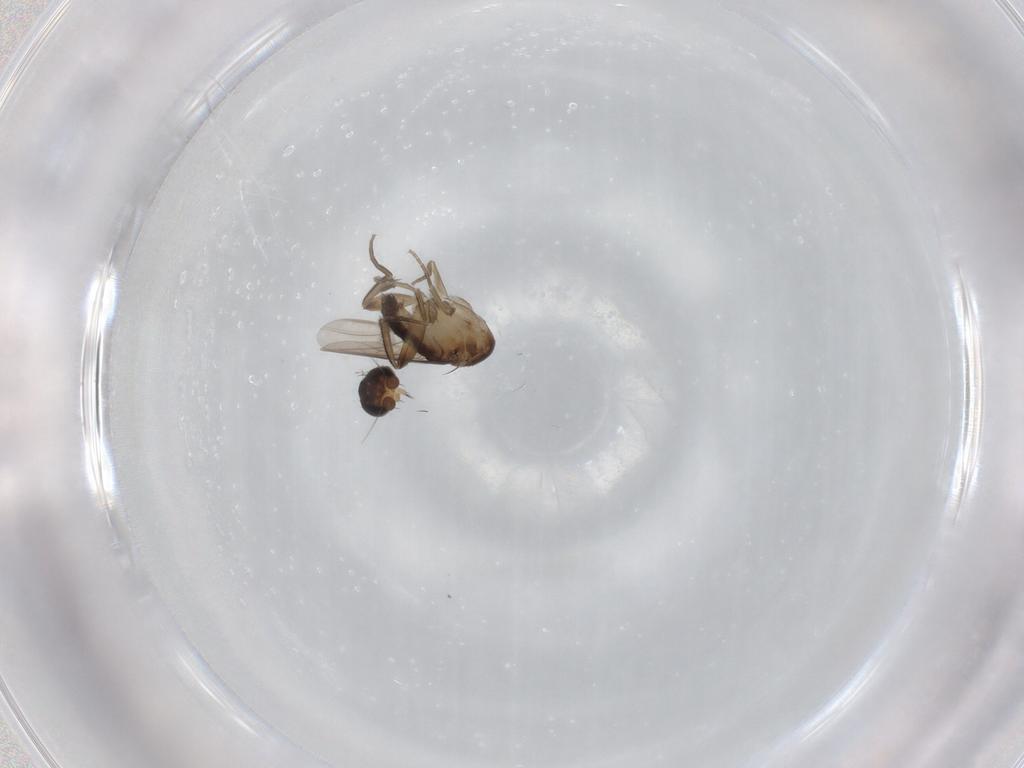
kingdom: Animalia
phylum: Arthropoda
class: Insecta
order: Diptera
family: Phoridae
